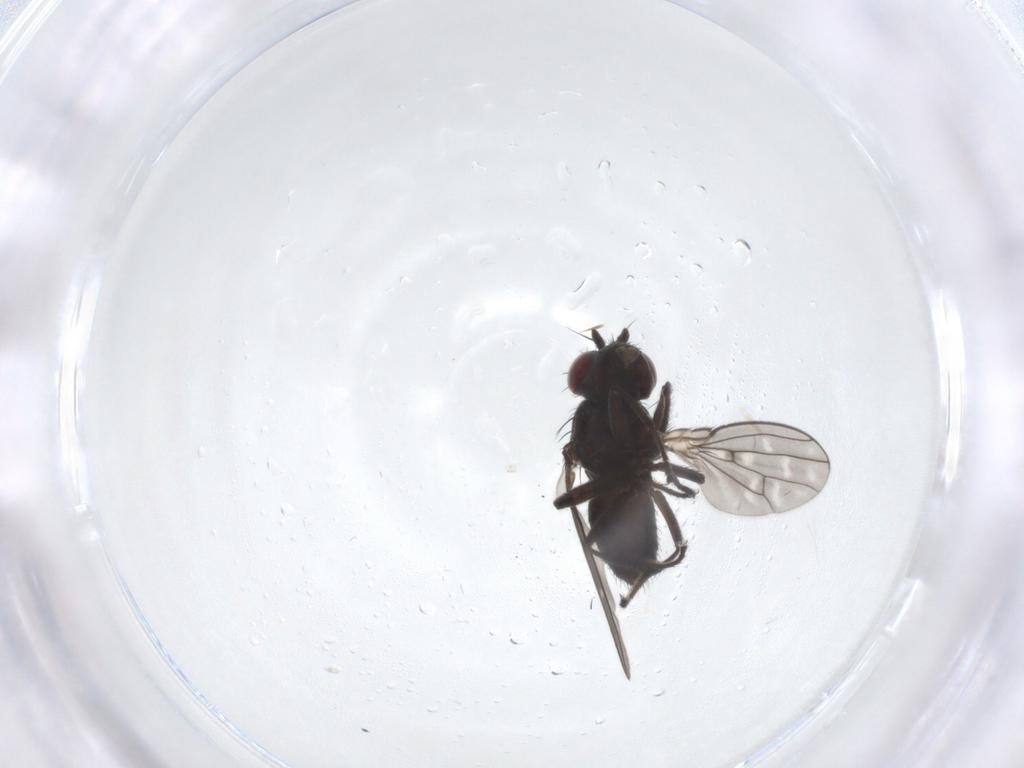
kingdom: Animalia
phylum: Arthropoda
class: Insecta
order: Diptera
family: Ephydridae
